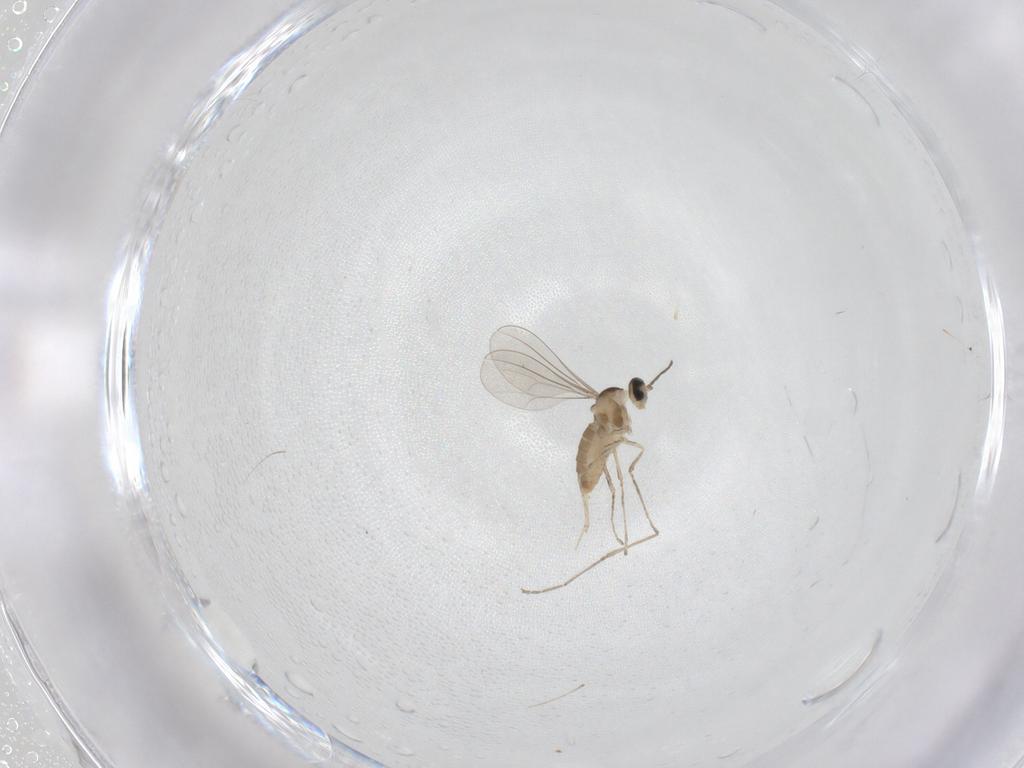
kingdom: Animalia
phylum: Arthropoda
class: Insecta
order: Diptera
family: Cecidomyiidae
